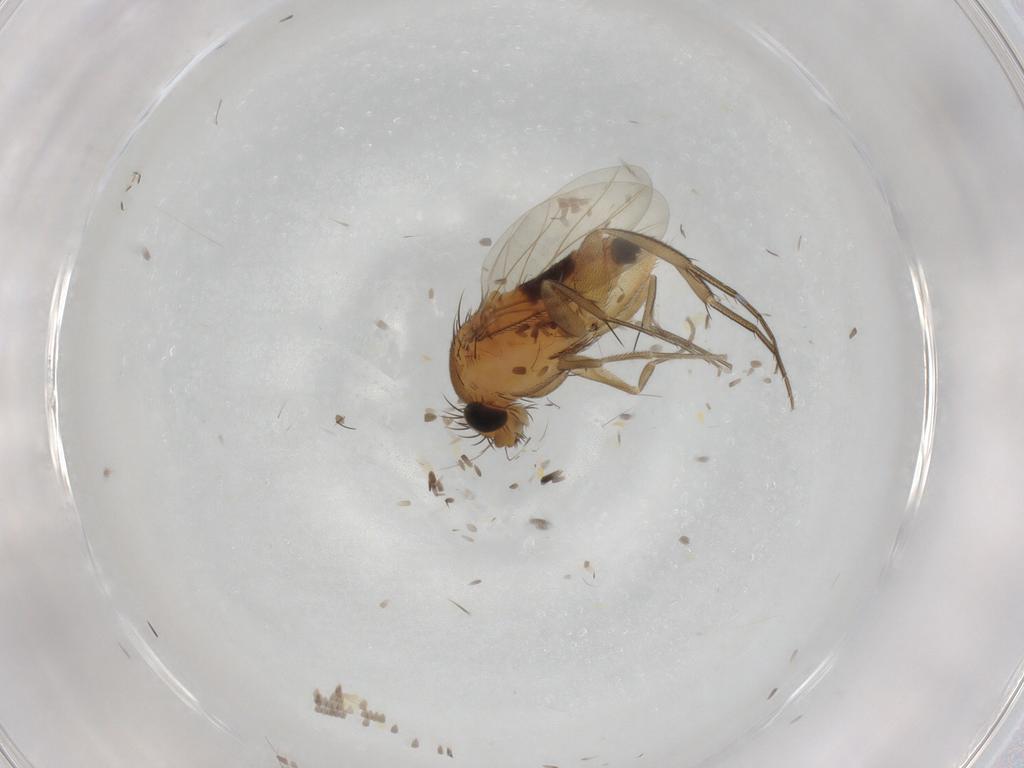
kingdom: Animalia
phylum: Arthropoda
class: Insecta
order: Diptera
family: Phoridae
